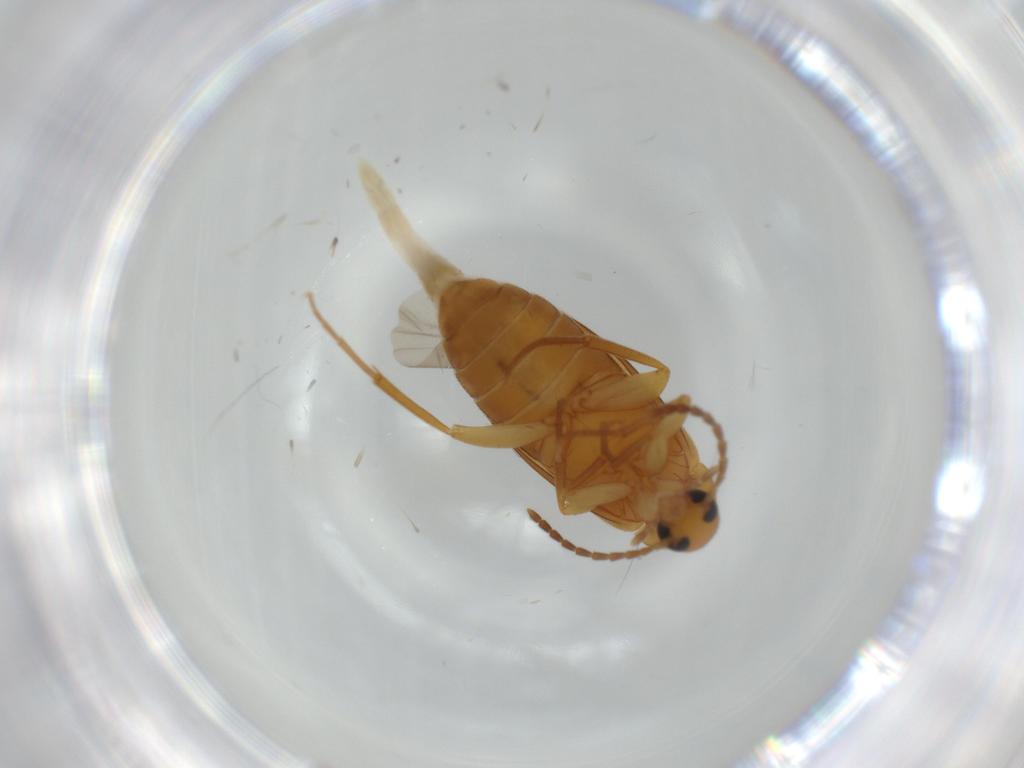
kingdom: Animalia
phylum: Arthropoda
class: Insecta
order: Coleoptera
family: Scraptiidae
